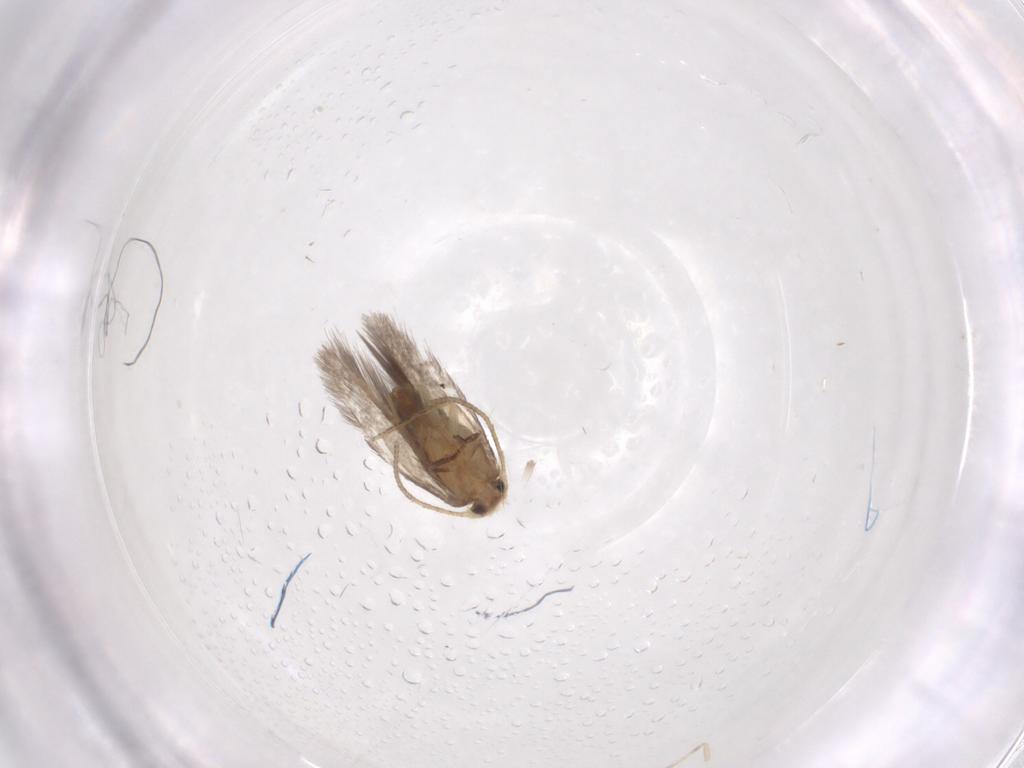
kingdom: Animalia
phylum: Arthropoda
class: Insecta
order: Lepidoptera
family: Nepticulidae
